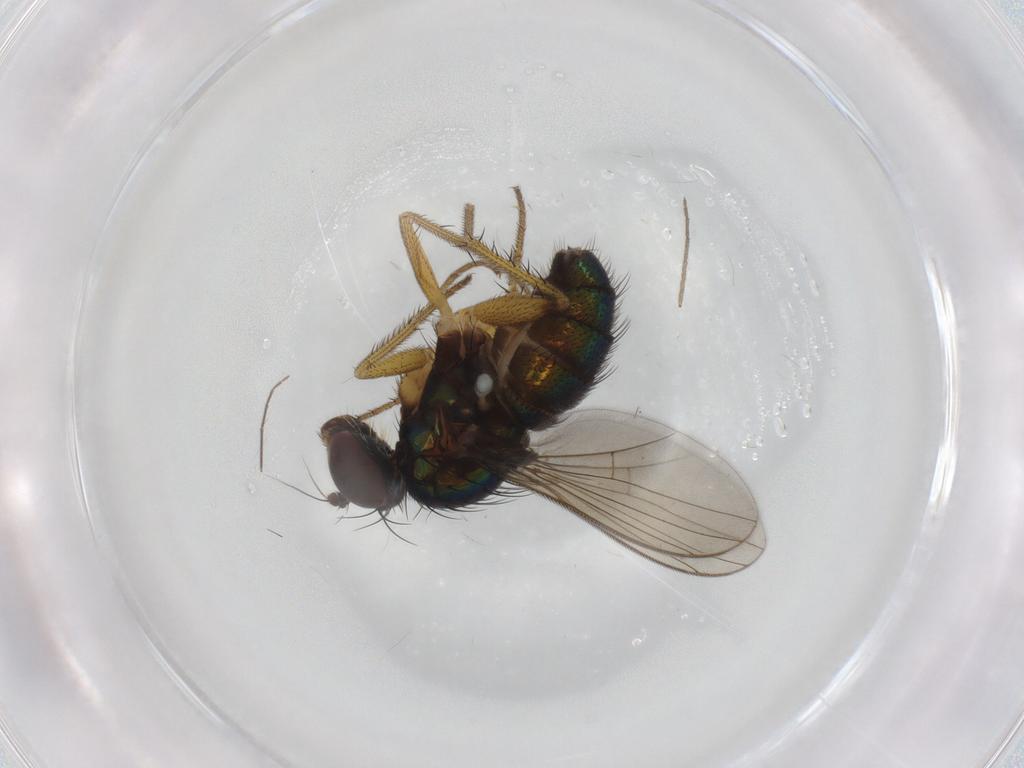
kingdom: Animalia
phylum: Arthropoda
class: Insecta
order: Diptera
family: Dolichopodidae
